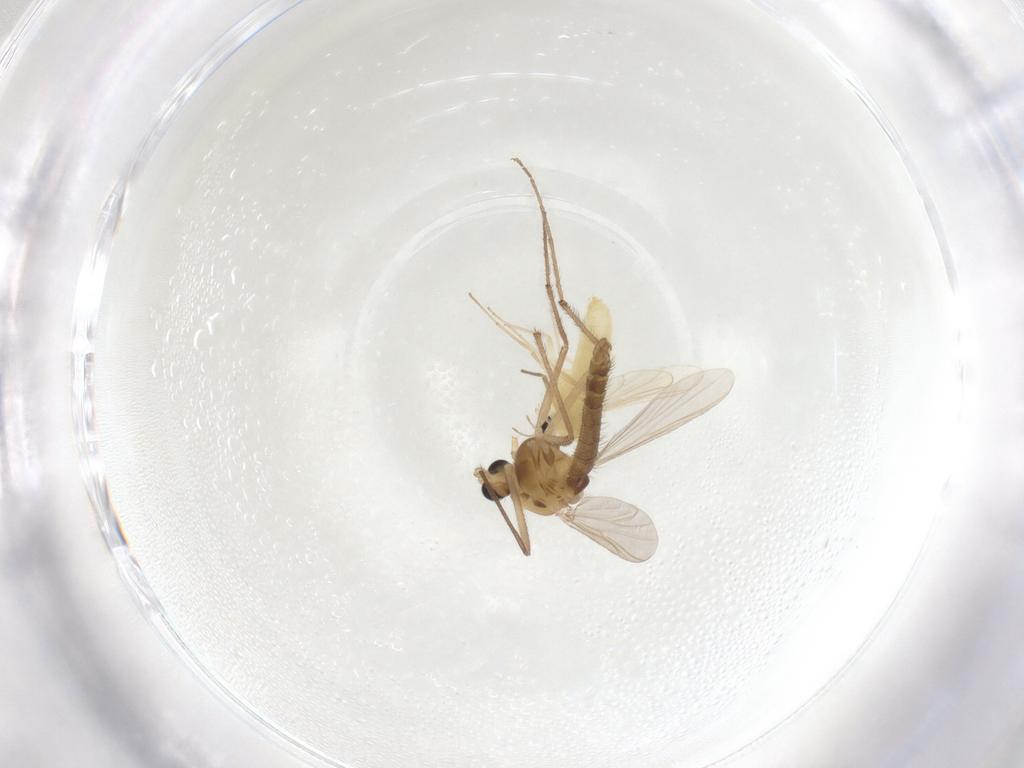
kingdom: Animalia
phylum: Arthropoda
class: Insecta
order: Diptera
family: Chironomidae
